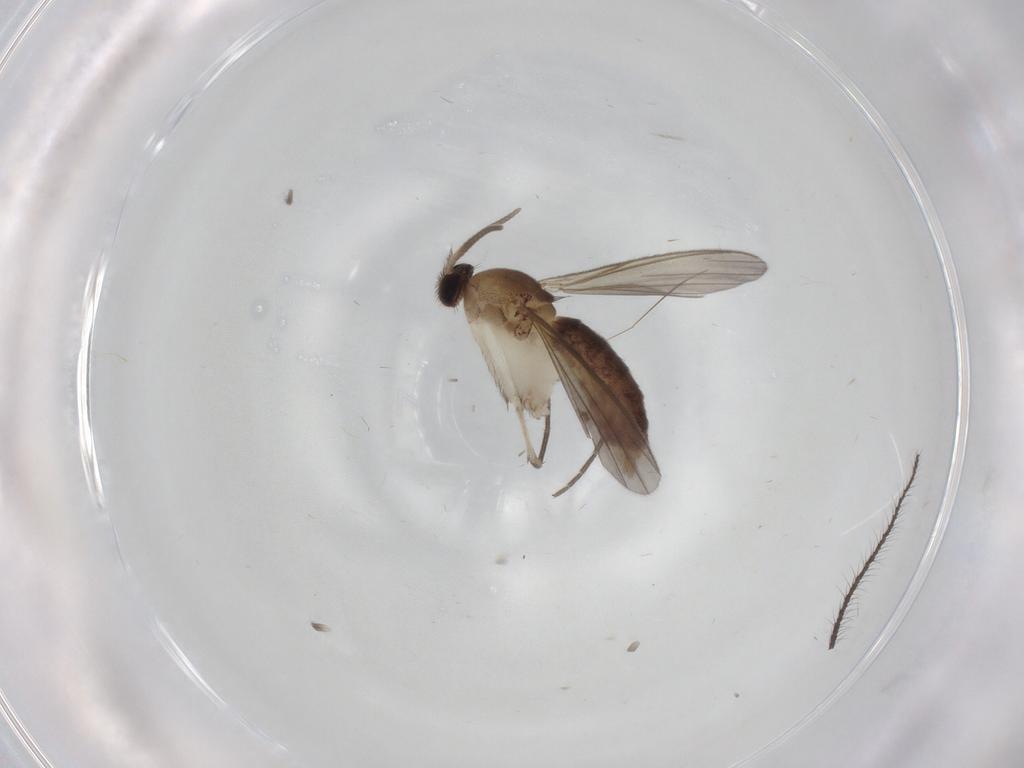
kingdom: Animalia
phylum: Arthropoda
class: Insecta
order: Diptera
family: Mycetophilidae
